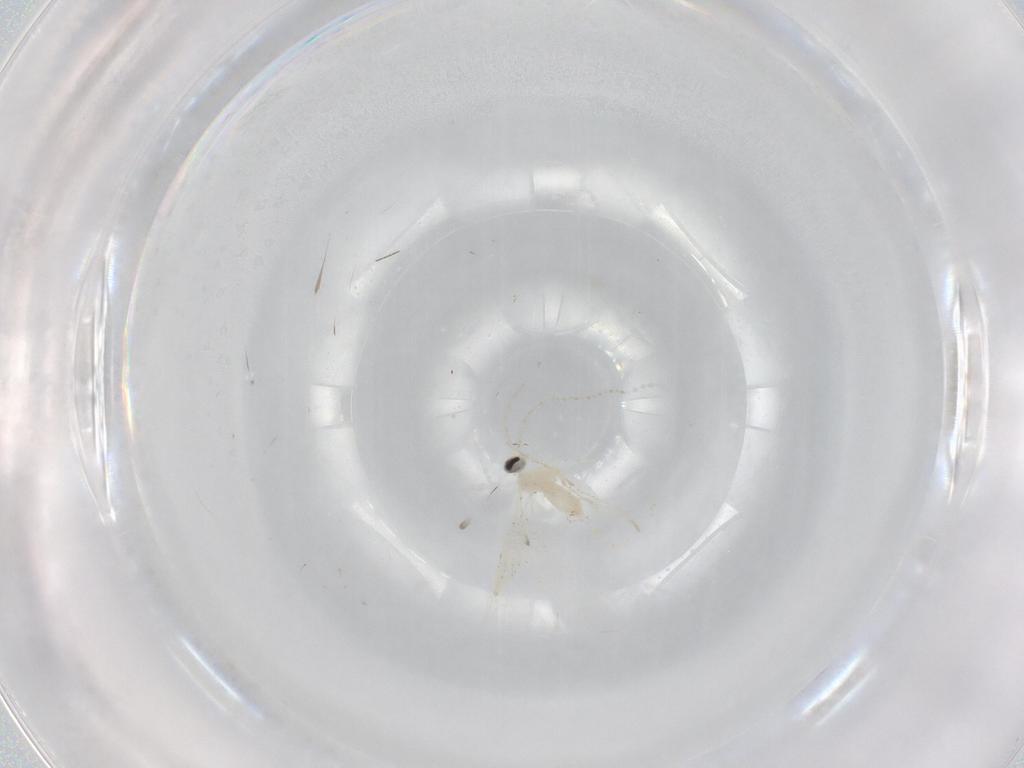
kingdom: Animalia
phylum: Arthropoda
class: Insecta
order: Diptera
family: Cecidomyiidae
